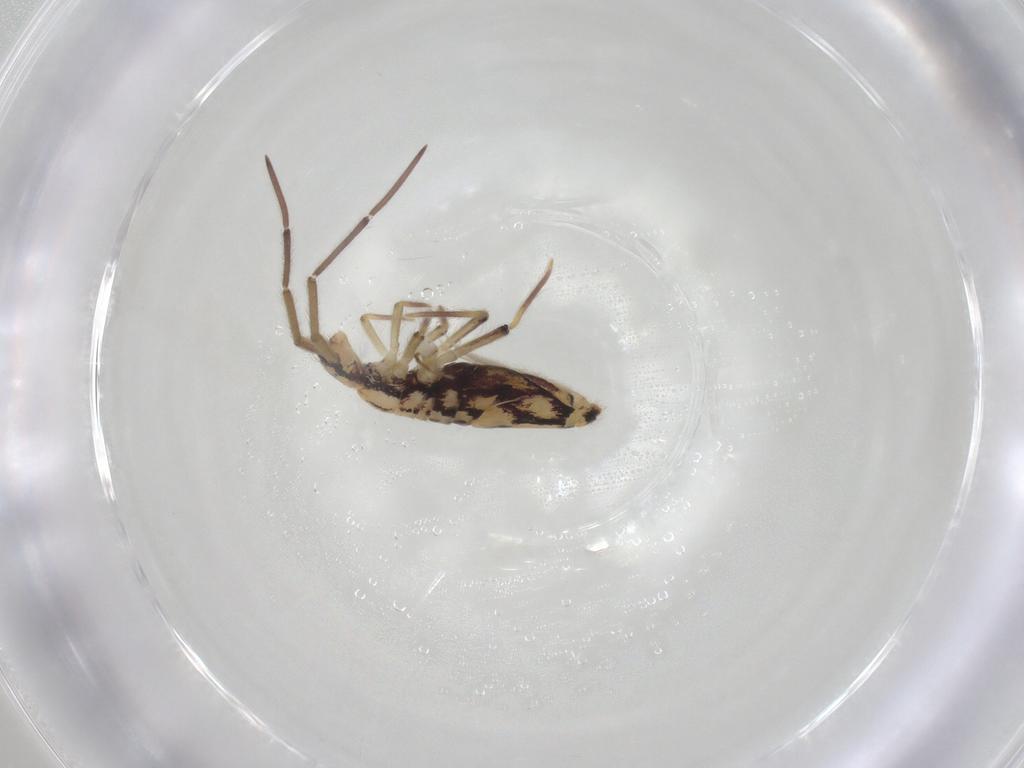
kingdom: Animalia
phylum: Arthropoda
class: Collembola
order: Entomobryomorpha
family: Entomobryidae
